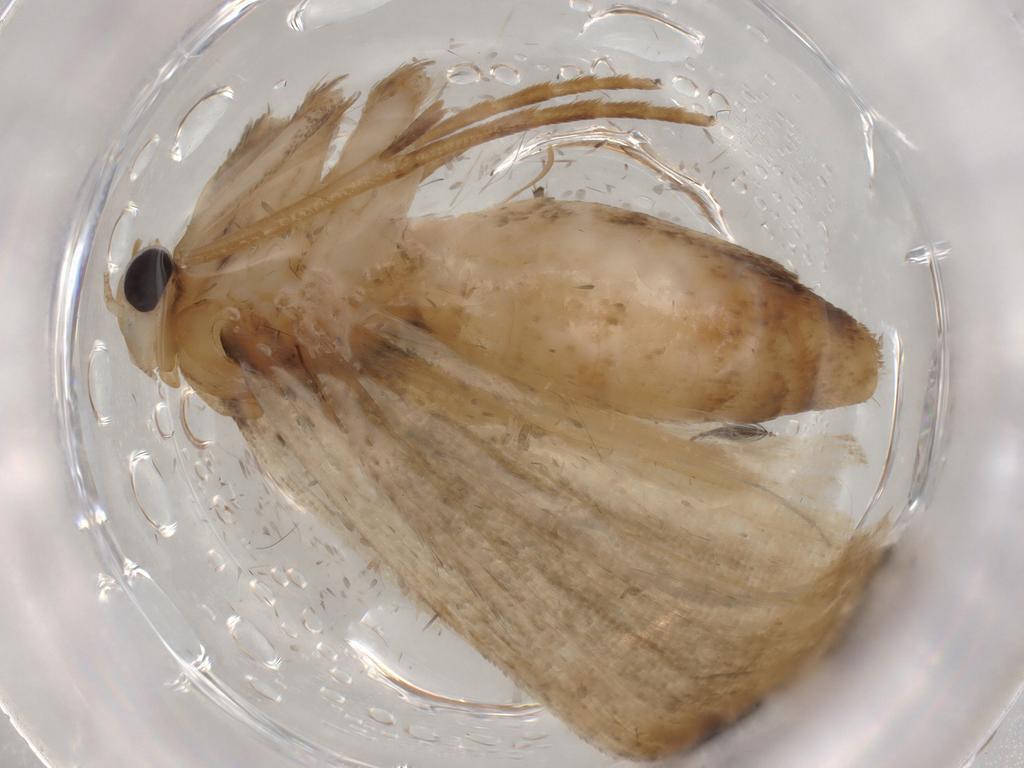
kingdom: Animalia
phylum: Arthropoda
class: Insecta
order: Lepidoptera
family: Noctuidae
